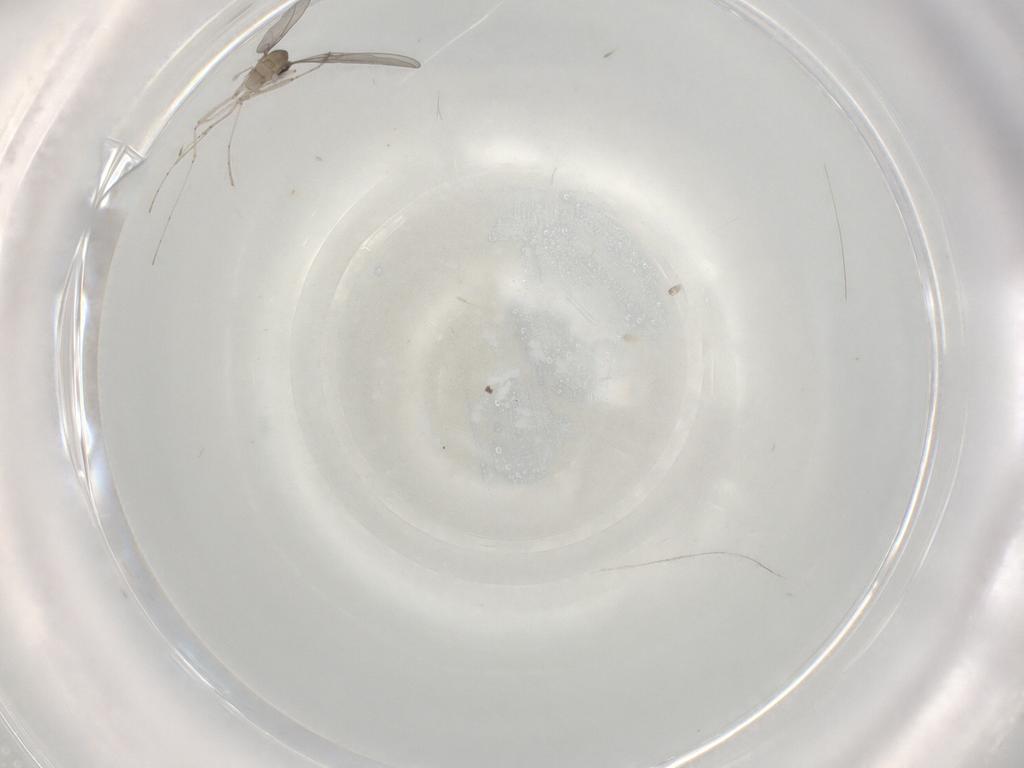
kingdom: Animalia
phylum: Arthropoda
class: Insecta
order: Diptera
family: Cecidomyiidae
